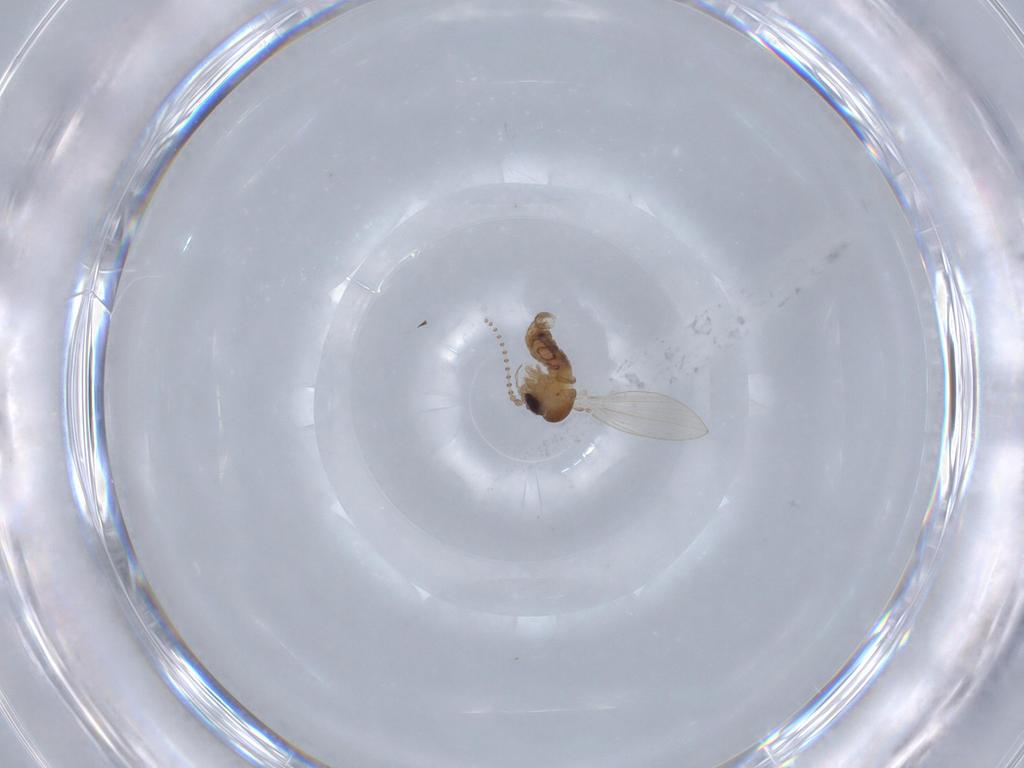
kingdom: Animalia
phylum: Arthropoda
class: Insecta
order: Diptera
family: Psychodidae
